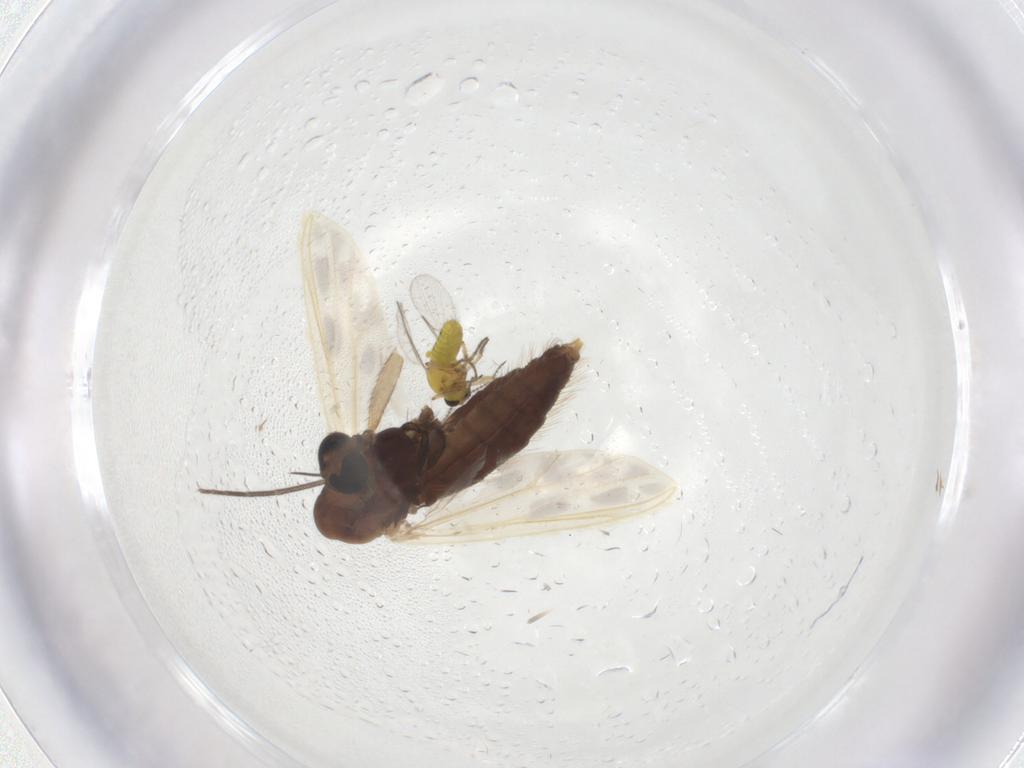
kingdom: Animalia
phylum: Arthropoda
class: Insecta
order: Diptera
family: Chironomidae
